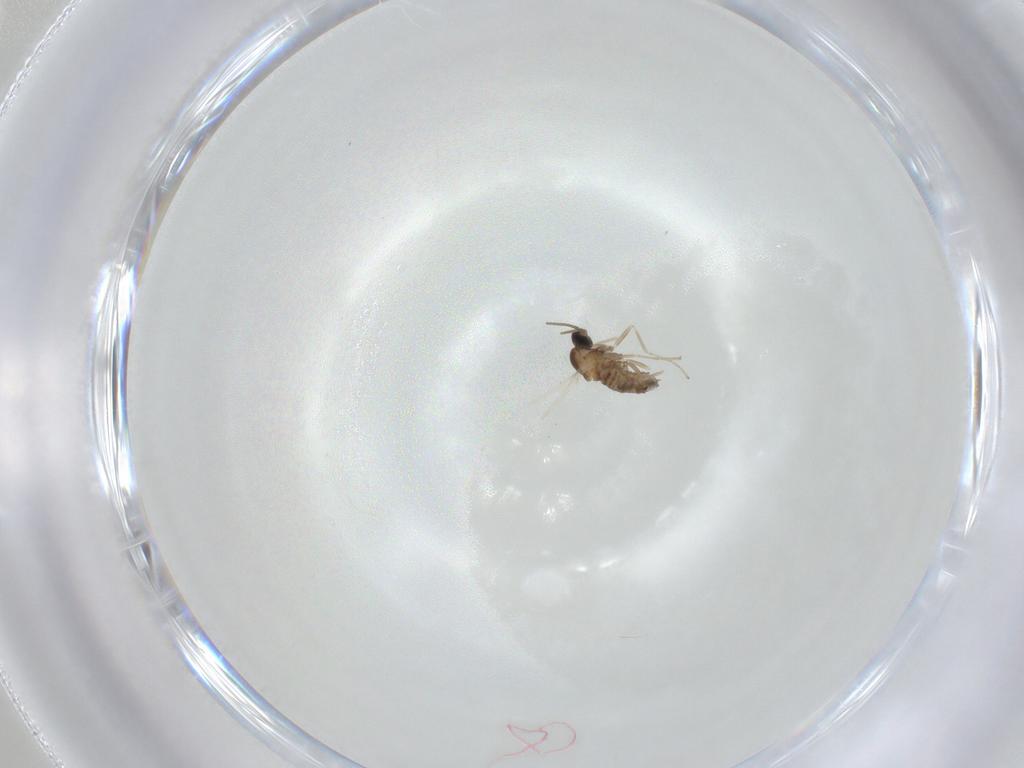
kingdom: Animalia
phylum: Arthropoda
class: Insecta
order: Diptera
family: Cecidomyiidae
